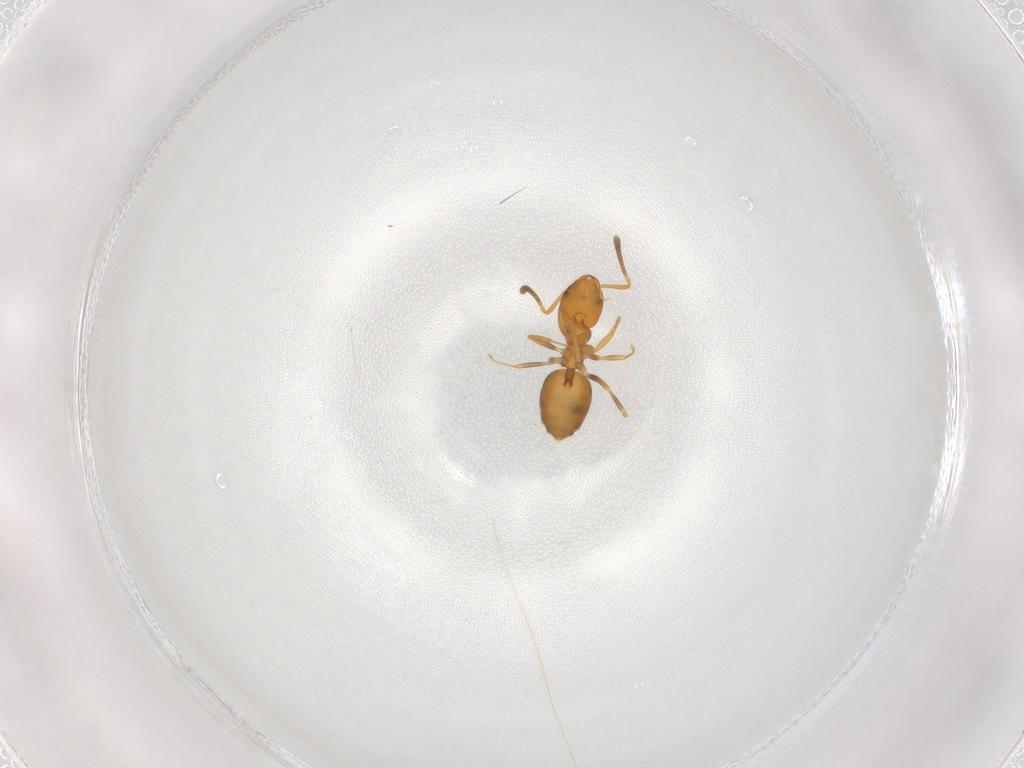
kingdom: Animalia
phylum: Arthropoda
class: Insecta
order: Hymenoptera
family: Formicidae
